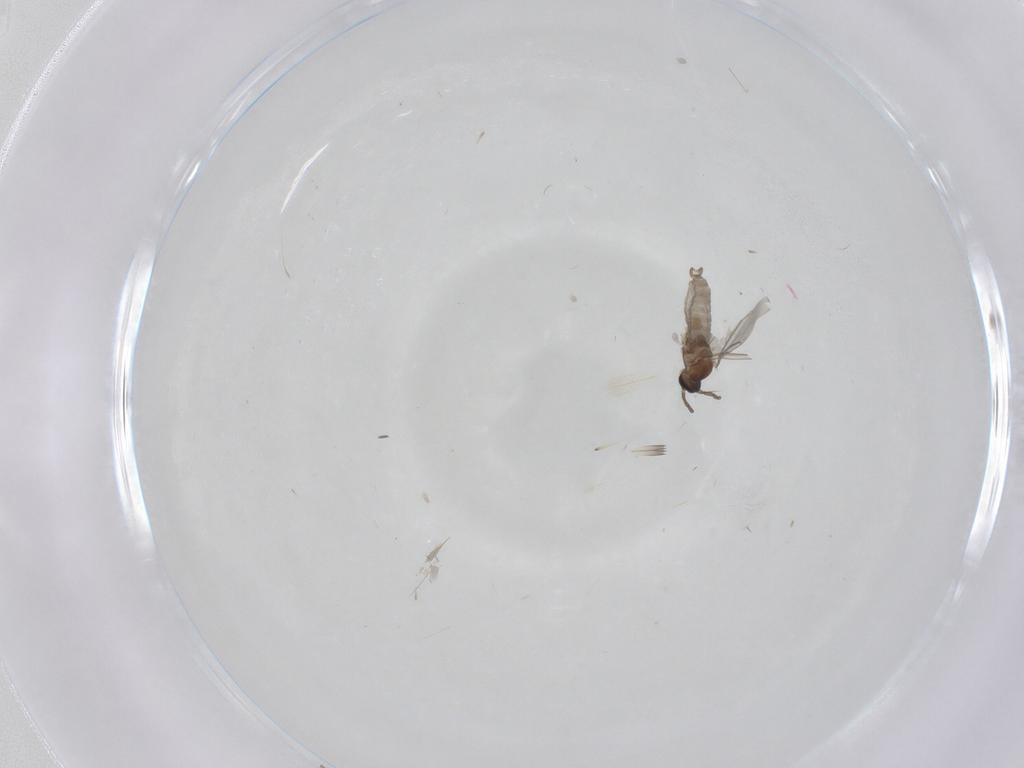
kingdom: Animalia
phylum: Arthropoda
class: Insecta
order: Diptera
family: Cecidomyiidae
